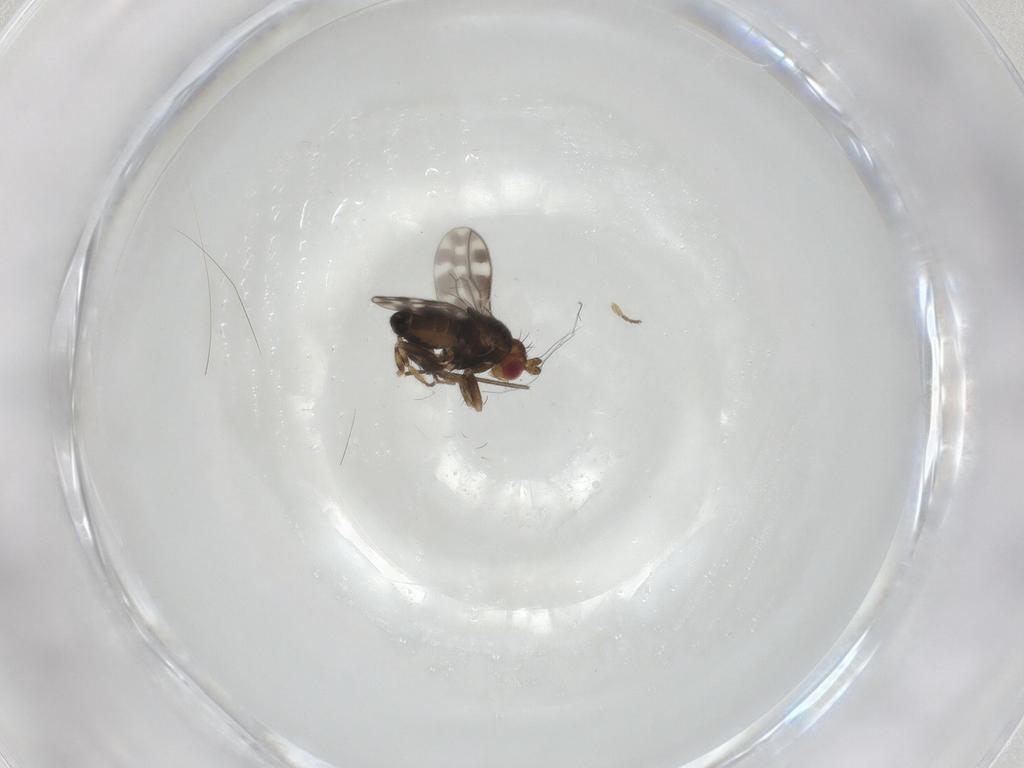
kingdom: Animalia
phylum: Arthropoda
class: Insecta
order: Diptera
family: Sphaeroceridae
